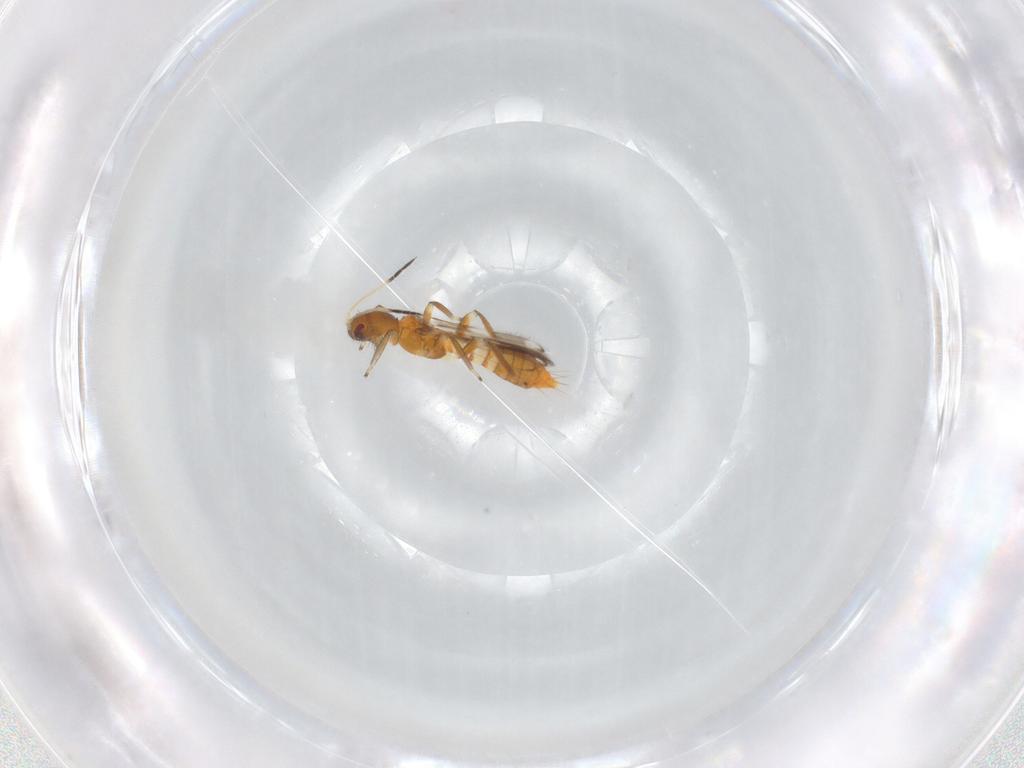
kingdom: Animalia
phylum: Arthropoda
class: Insecta
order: Thysanoptera
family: Aeolothripidae
